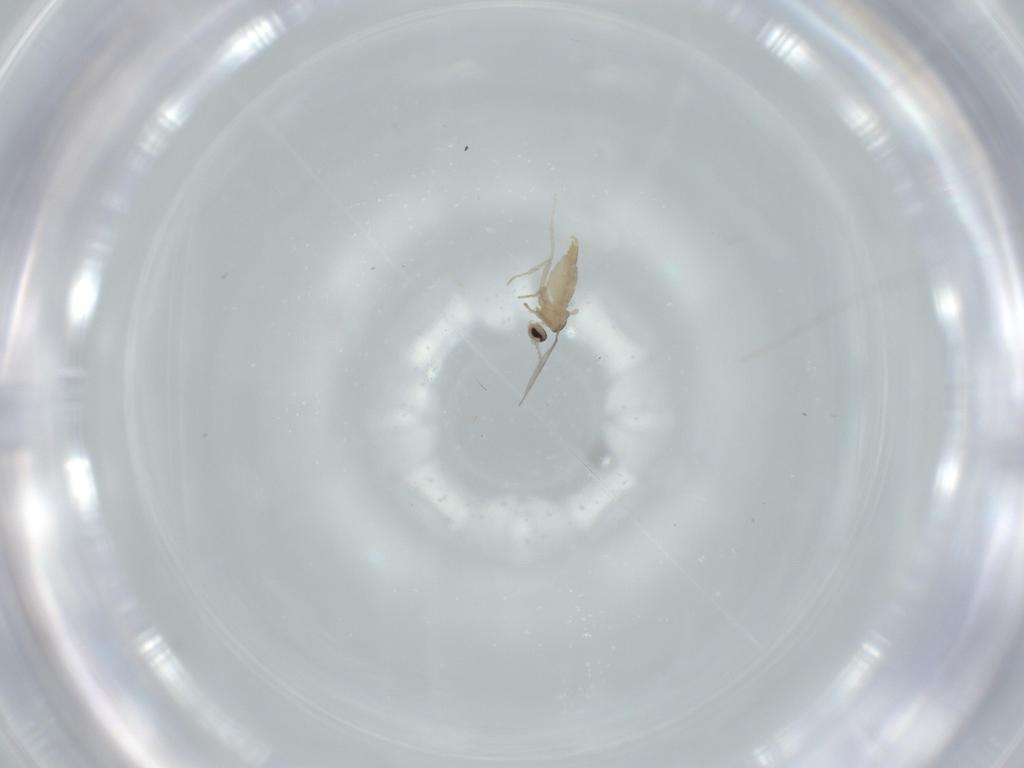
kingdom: Animalia
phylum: Arthropoda
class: Insecta
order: Diptera
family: Cecidomyiidae
